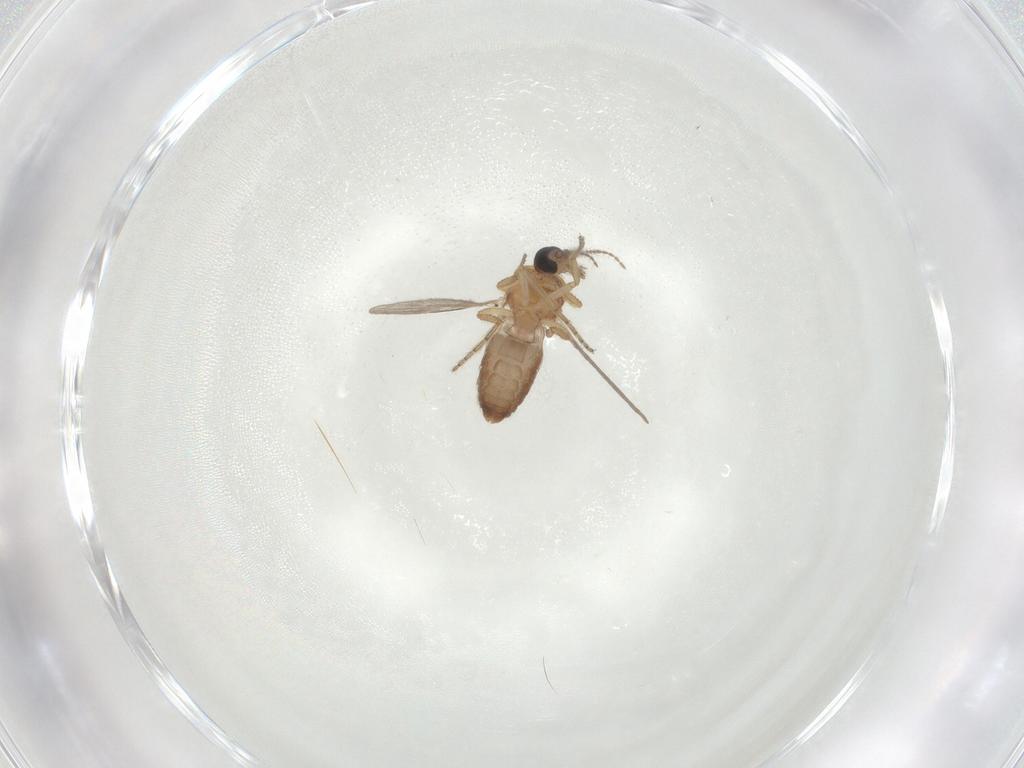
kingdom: Animalia
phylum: Arthropoda
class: Insecta
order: Diptera
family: Ceratopogonidae
